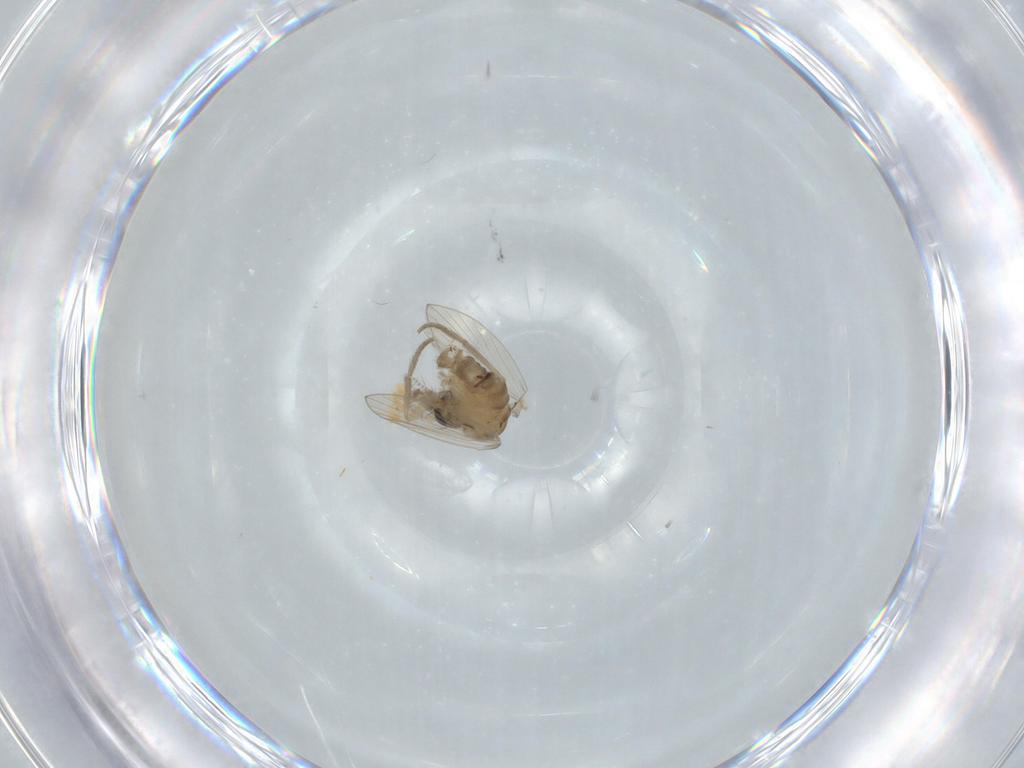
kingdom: Animalia
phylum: Arthropoda
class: Insecta
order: Diptera
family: Psychodidae
